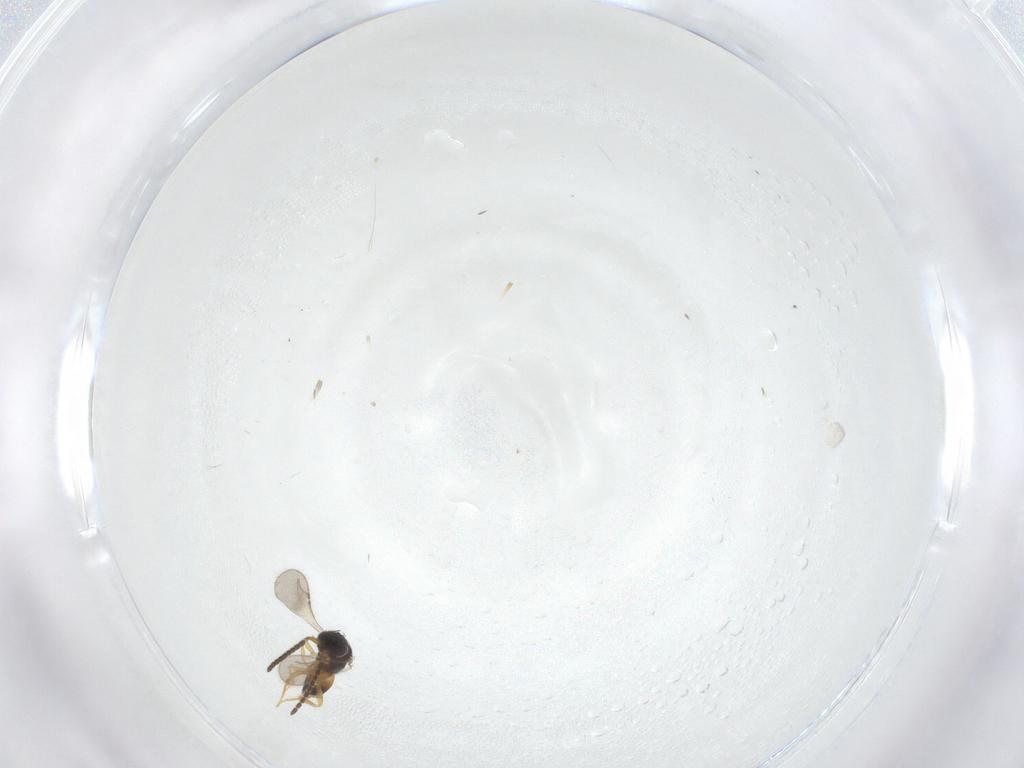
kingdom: Animalia
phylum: Arthropoda
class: Insecta
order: Hymenoptera
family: Ceraphronidae
